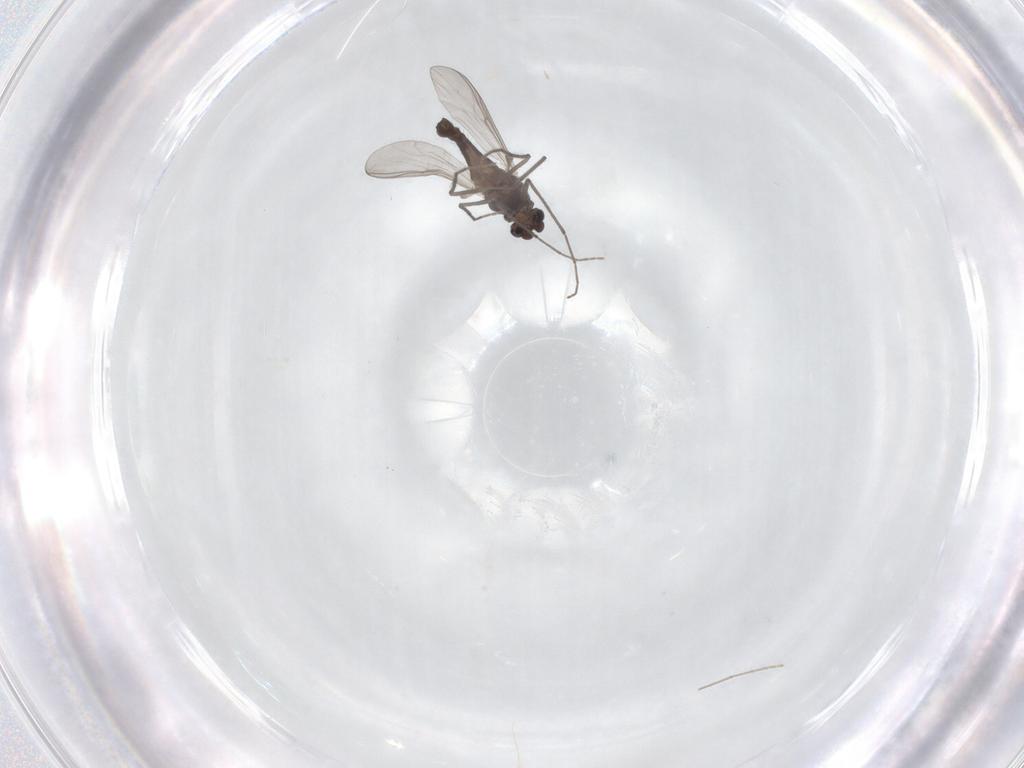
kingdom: Animalia
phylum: Arthropoda
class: Insecta
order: Diptera
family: Chironomidae
